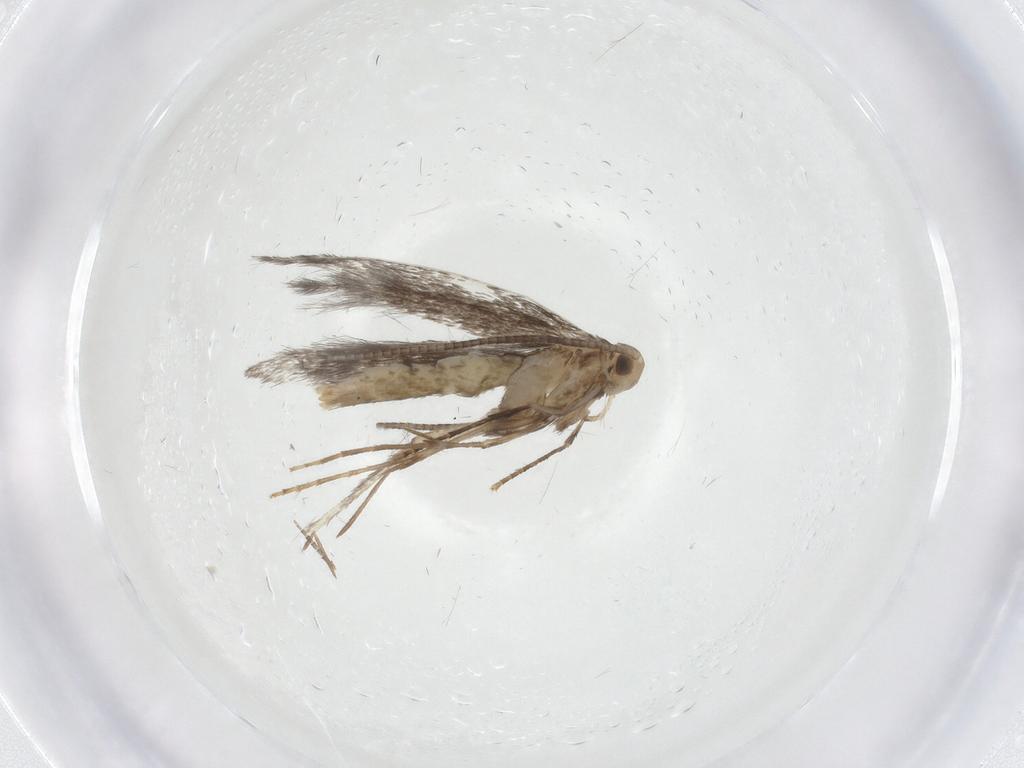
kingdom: Animalia
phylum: Arthropoda
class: Insecta
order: Lepidoptera
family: Gracillariidae
